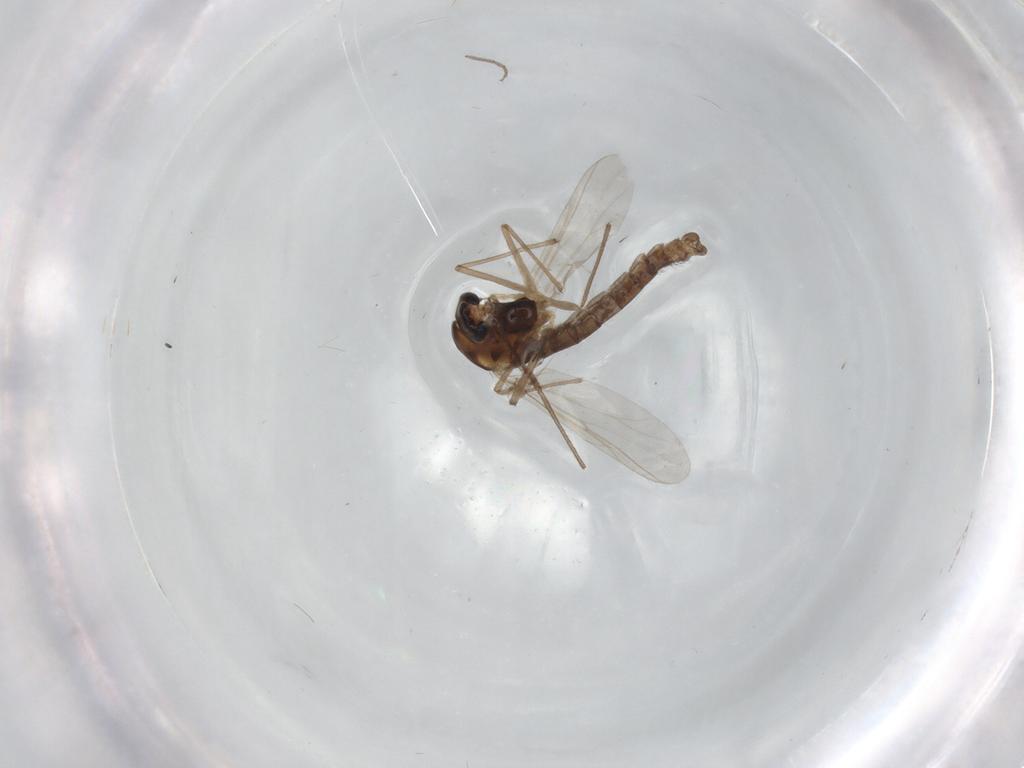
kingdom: Animalia
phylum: Arthropoda
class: Insecta
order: Diptera
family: Chironomidae
